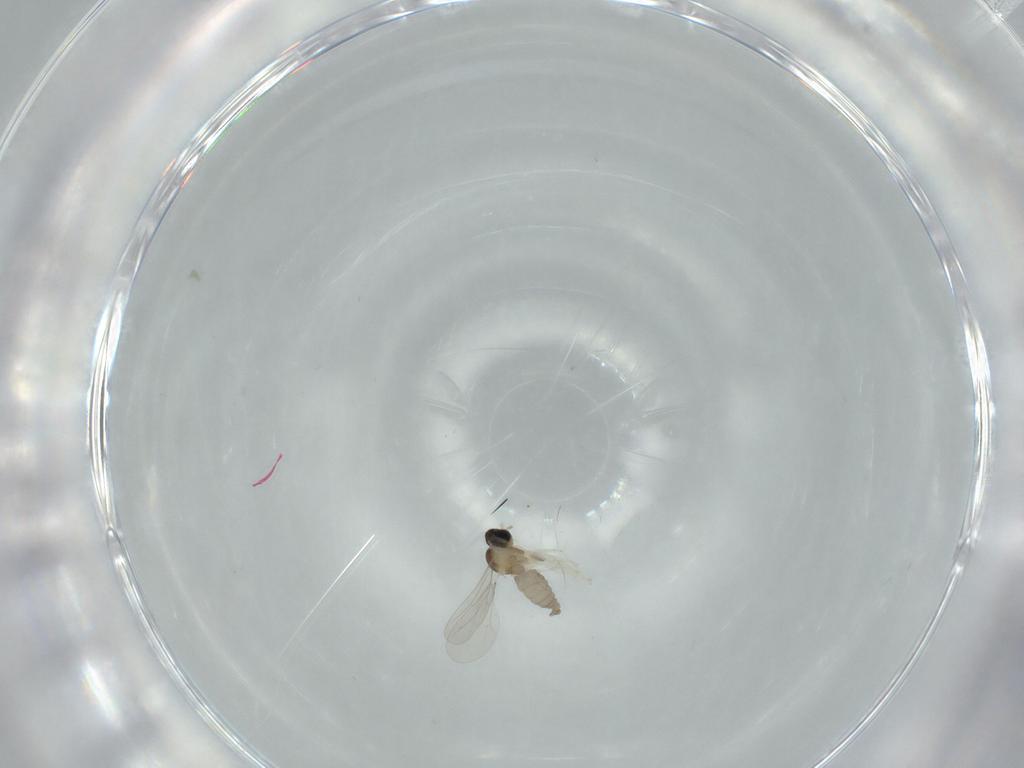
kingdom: Animalia
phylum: Arthropoda
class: Insecta
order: Diptera
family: Cecidomyiidae
